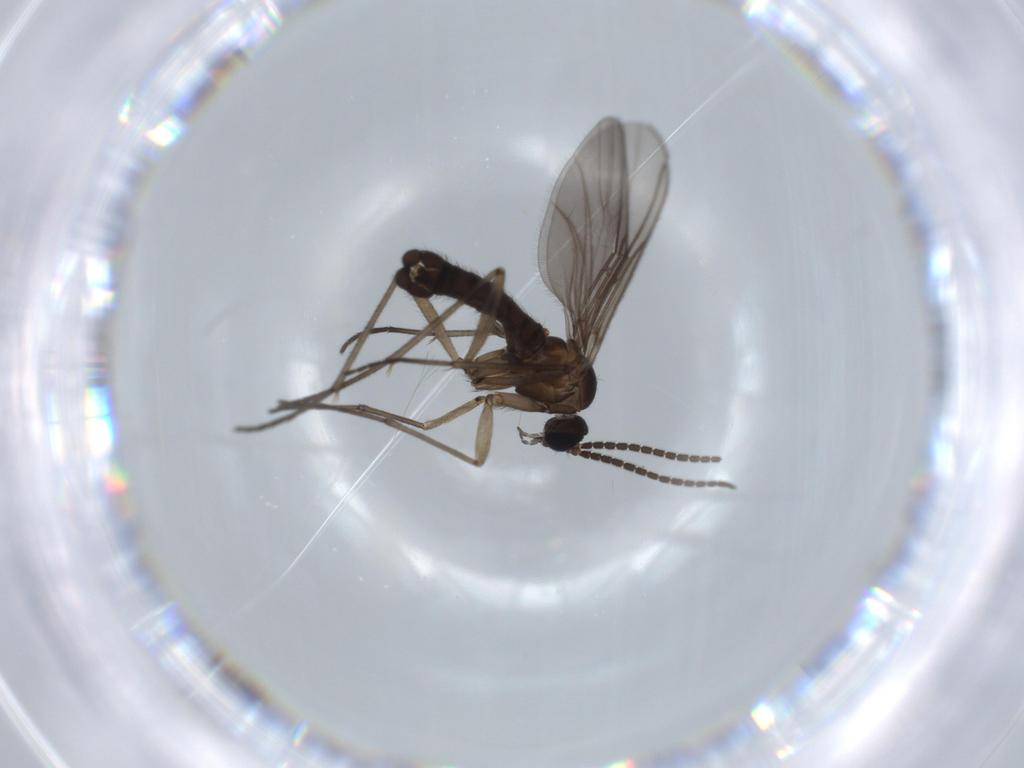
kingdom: Animalia
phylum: Arthropoda
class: Insecta
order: Diptera
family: Sciaridae
